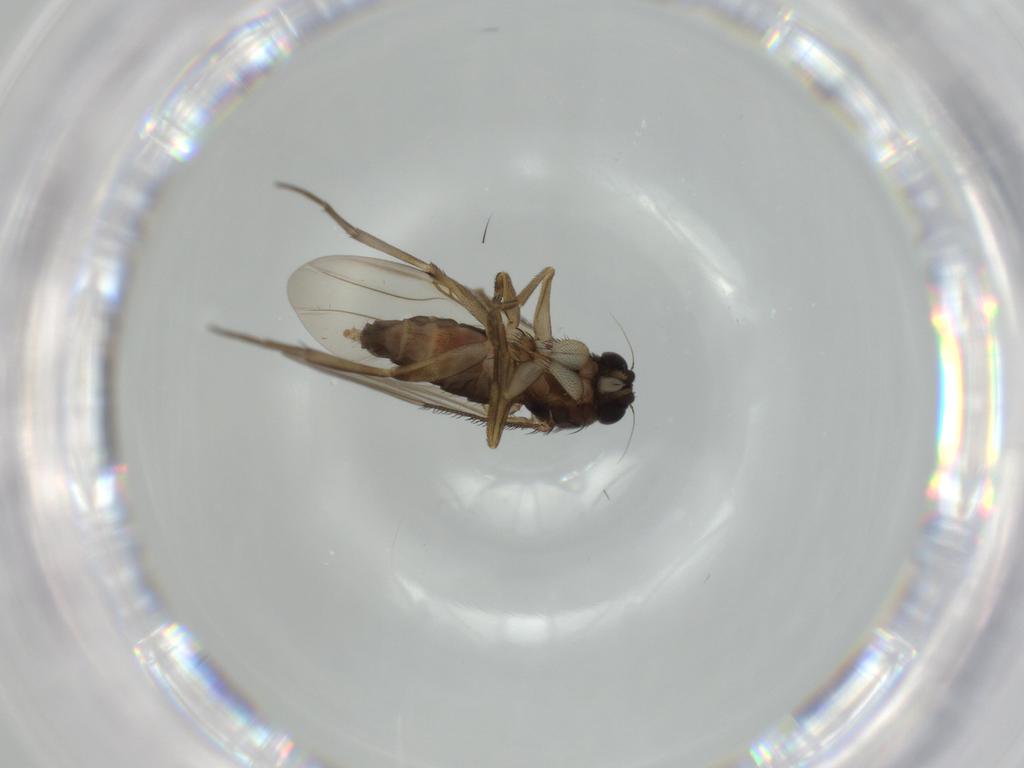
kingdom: Animalia
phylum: Arthropoda
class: Insecta
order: Diptera
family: Phoridae
